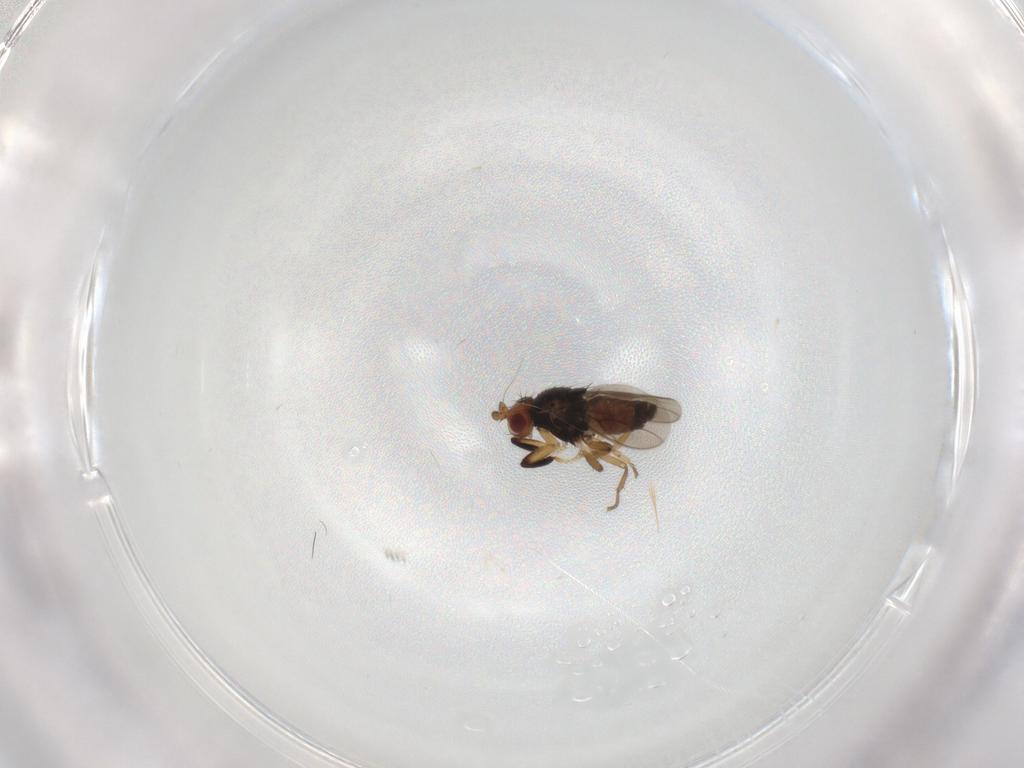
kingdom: Animalia
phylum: Arthropoda
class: Insecta
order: Diptera
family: Sphaeroceridae
